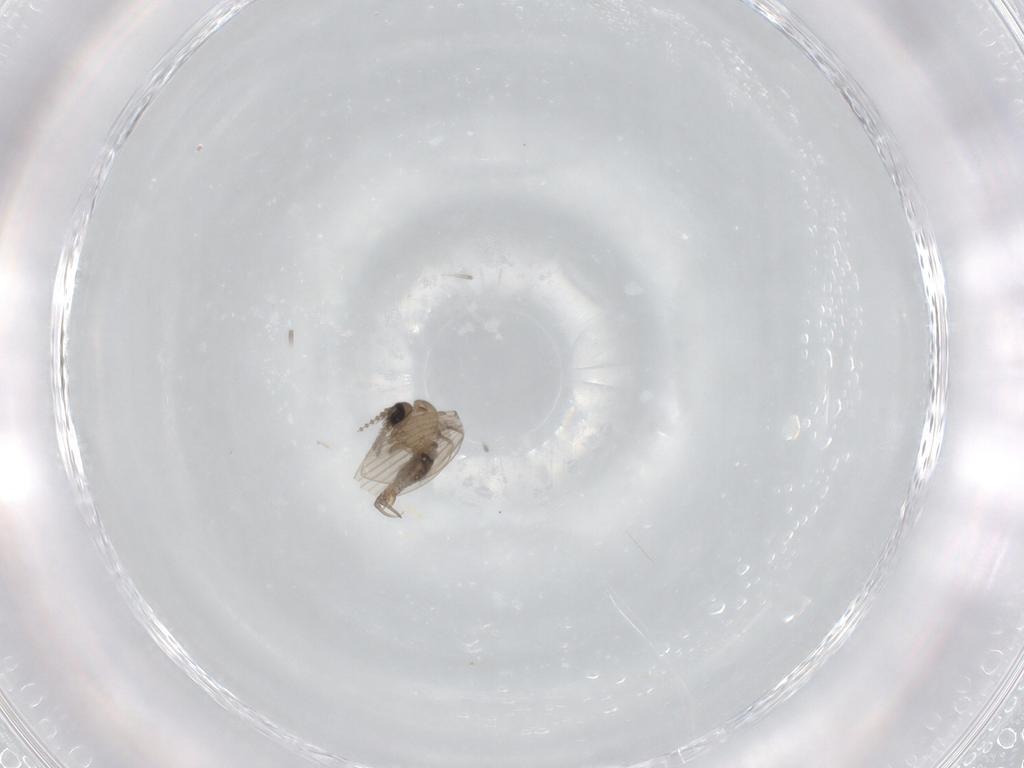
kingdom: Animalia
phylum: Arthropoda
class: Insecta
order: Diptera
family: Psychodidae
